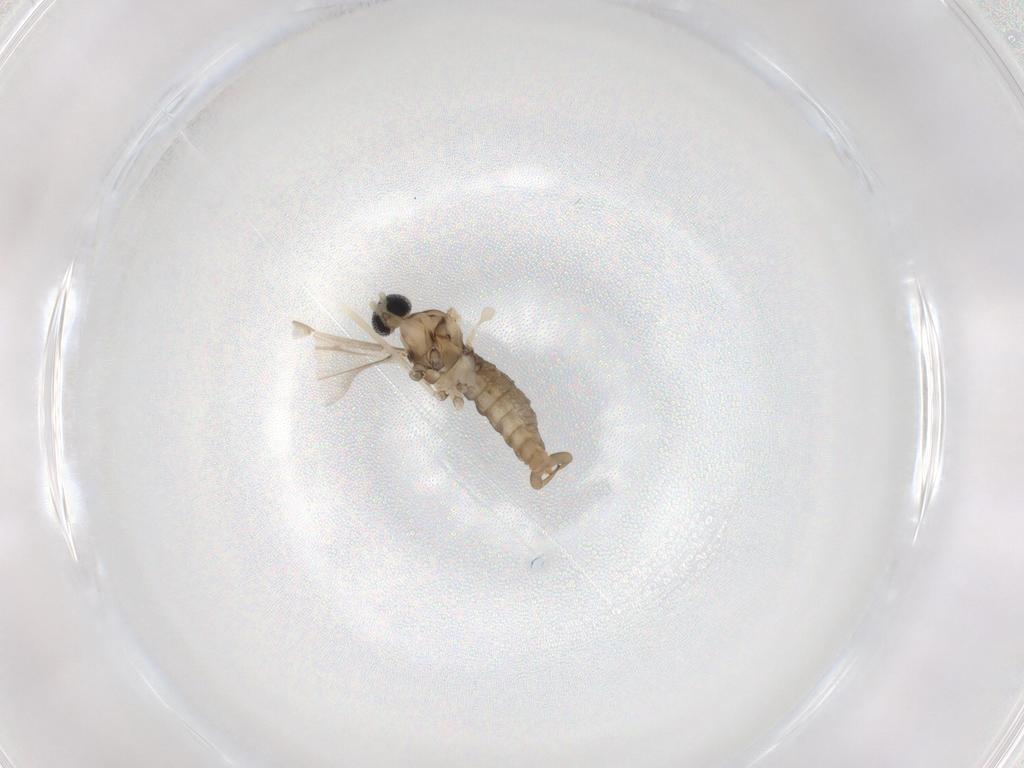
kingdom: Animalia
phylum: Arthropoda
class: Insecta
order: Diptera
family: Cecidomyiidae
